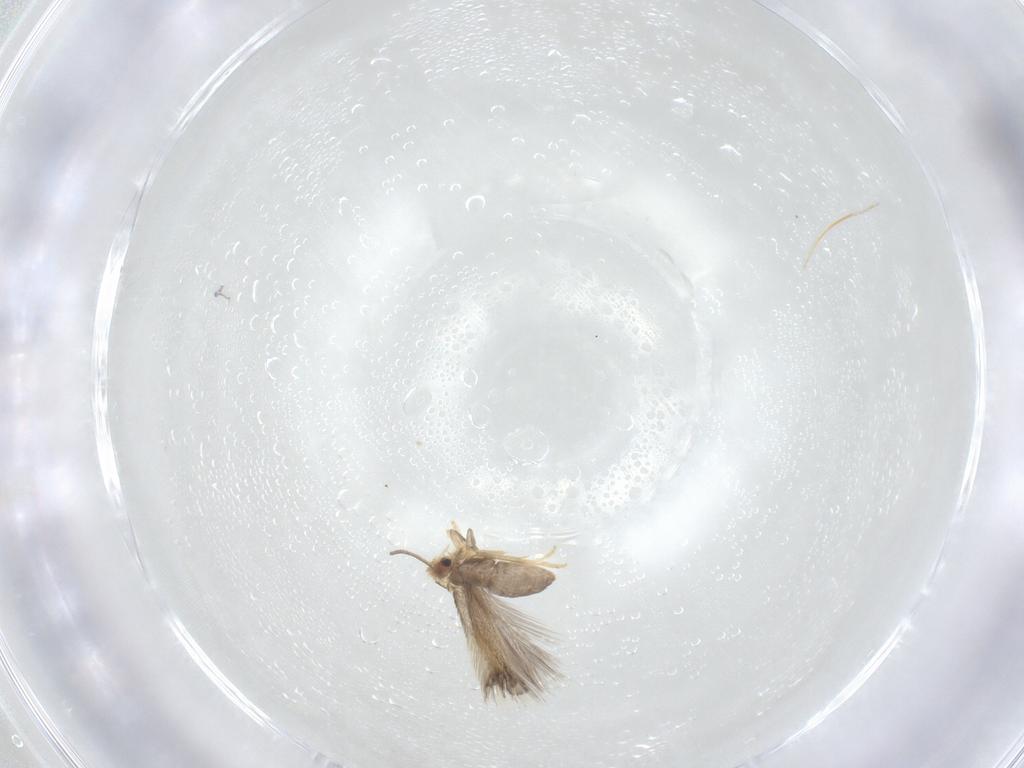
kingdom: Animalia
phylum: Arthropoda
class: Insecta
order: Lepidoptera
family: Nepticulidae
